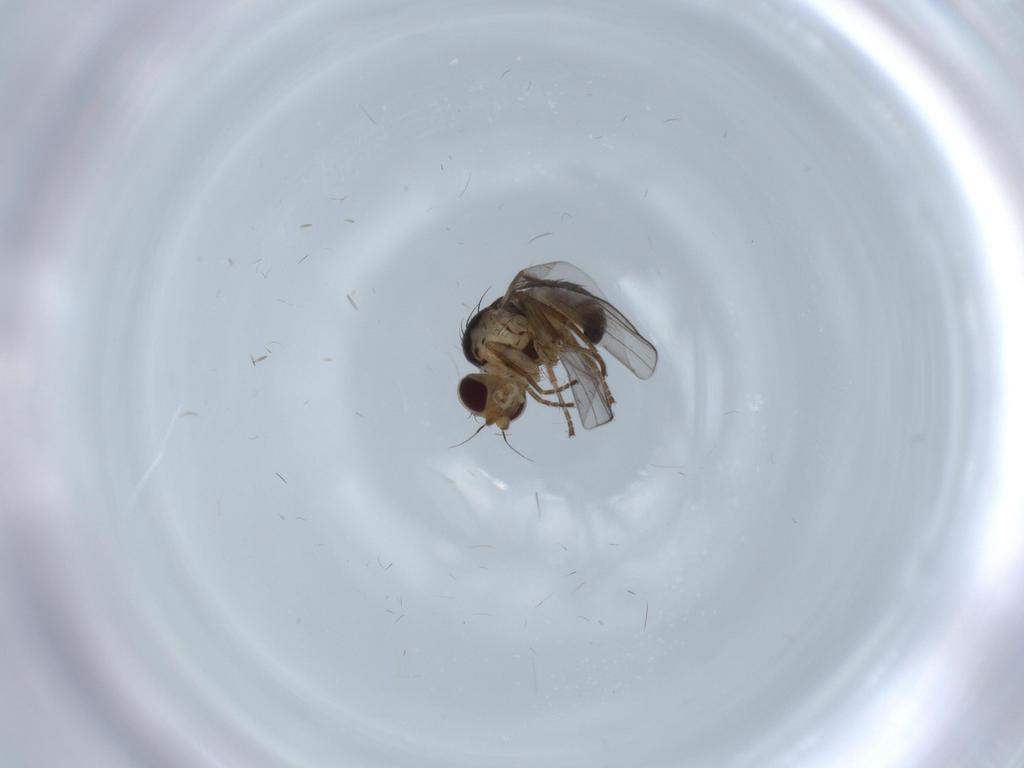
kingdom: Animalia
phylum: Arthropoda
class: Insecta
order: Diptera
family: Agromyzidae
